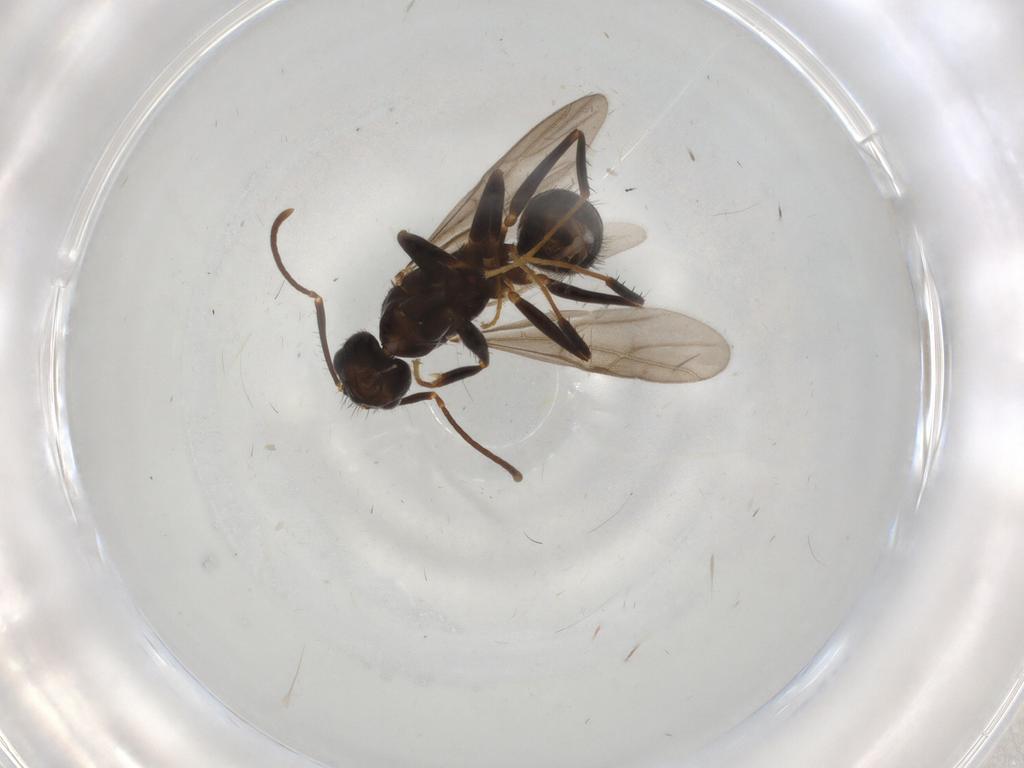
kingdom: Animalia
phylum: Arthropoda
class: Insecta
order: Hymenoptera
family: Formicidae
